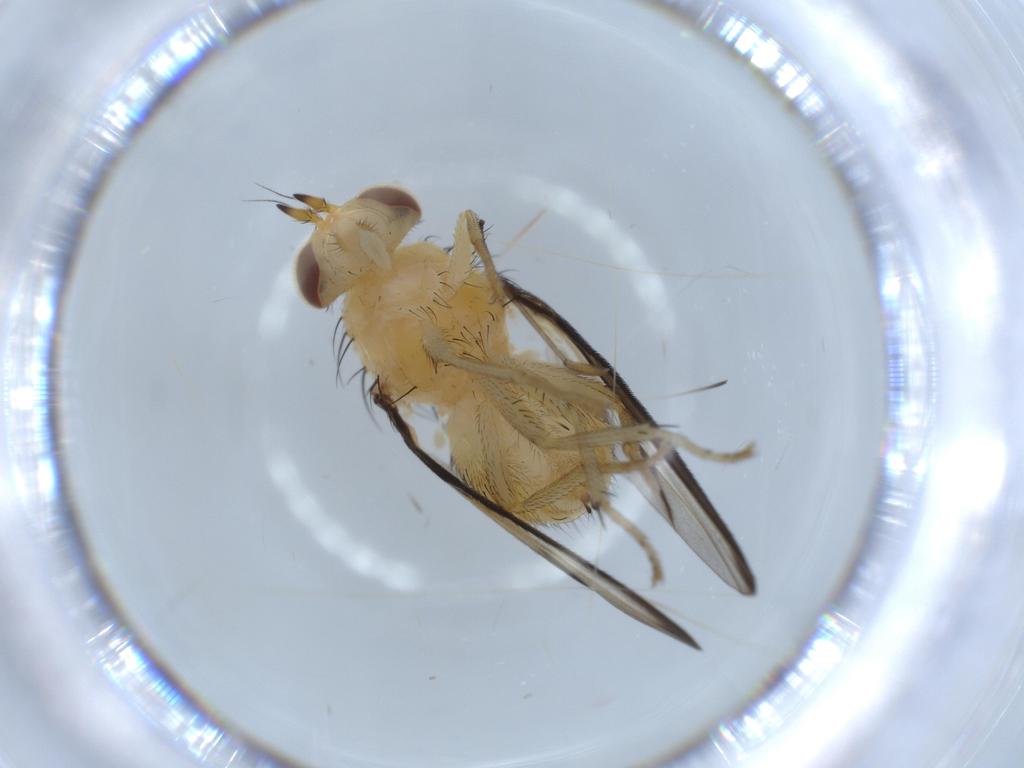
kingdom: Animalia
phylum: Arthropoda
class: Insecta
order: Diptera
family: Lauxaniidae
